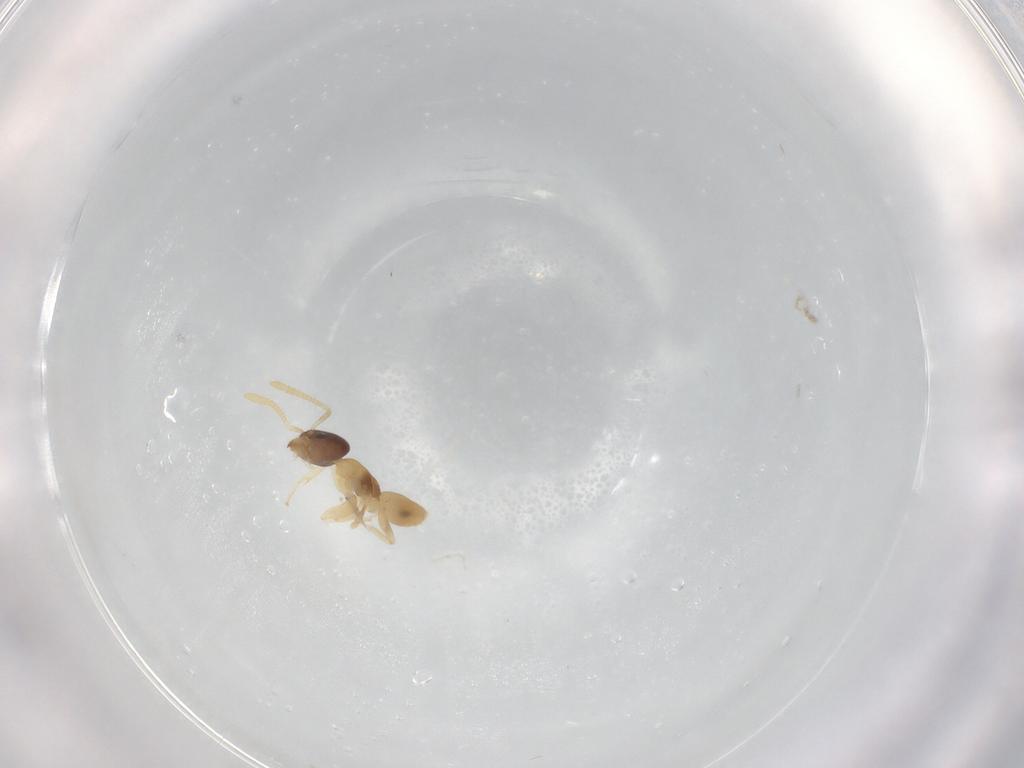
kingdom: Animalia
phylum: Arthropoda
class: Insecta
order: Hymenoptera
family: Formicidae
